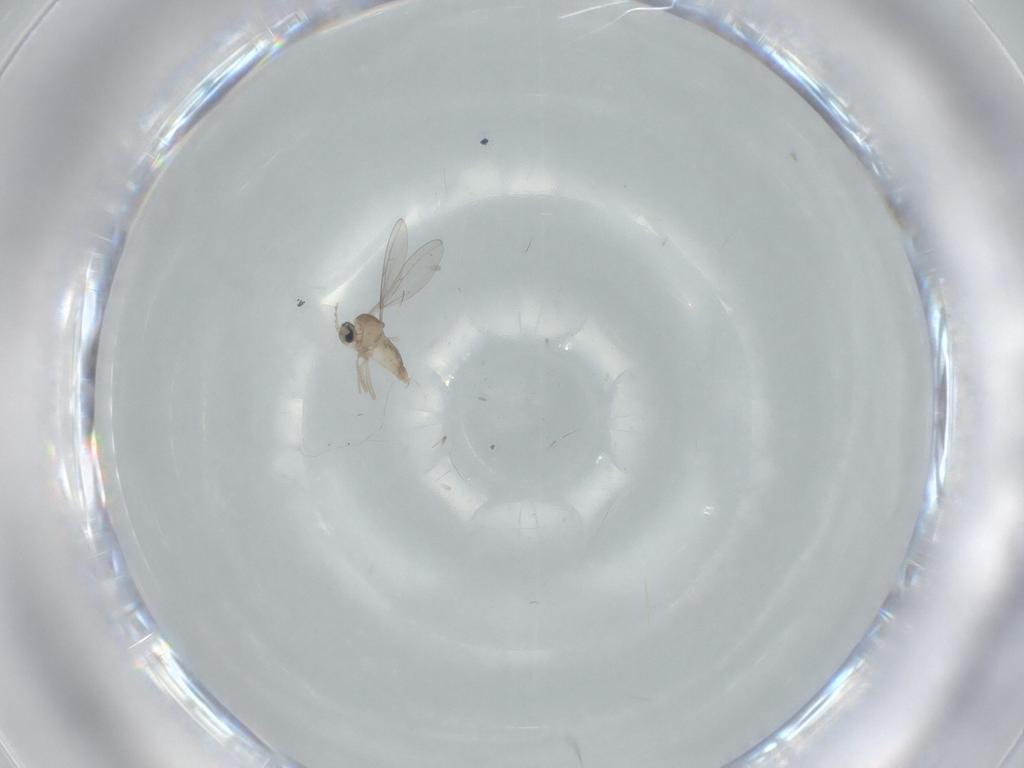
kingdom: Animalia
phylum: Arthropoda
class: Insecta
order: Diptera
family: Cecidomyiidae
